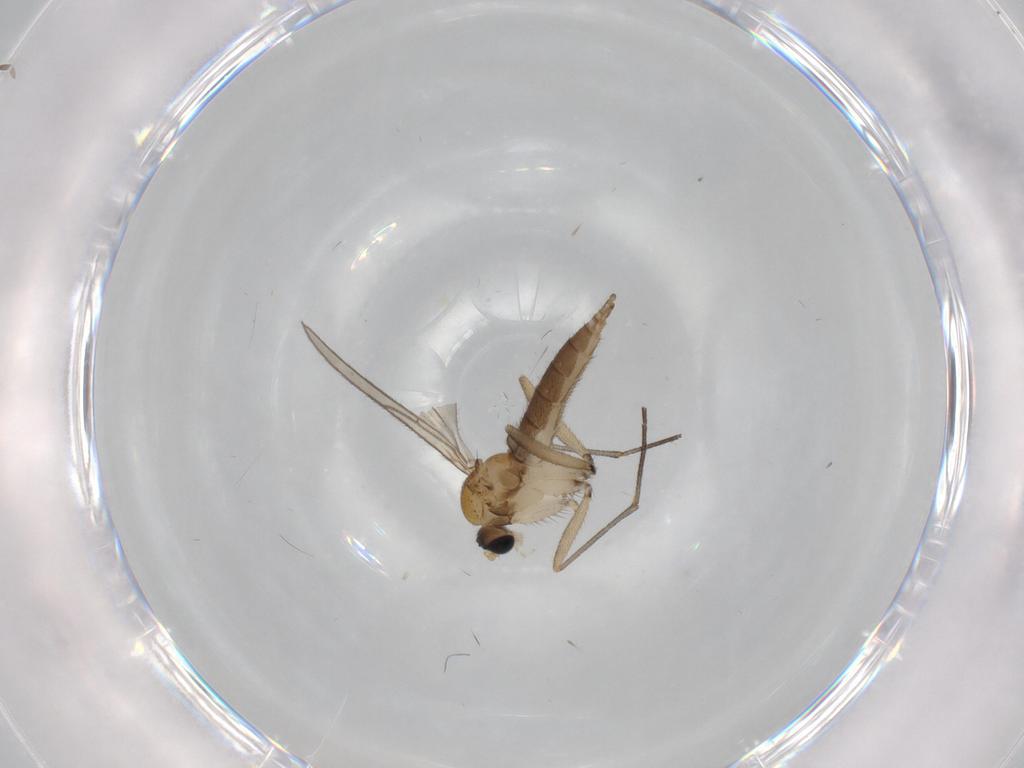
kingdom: Animalia
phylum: Arthropoda
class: Insecta
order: Diptera
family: Sciaridae
